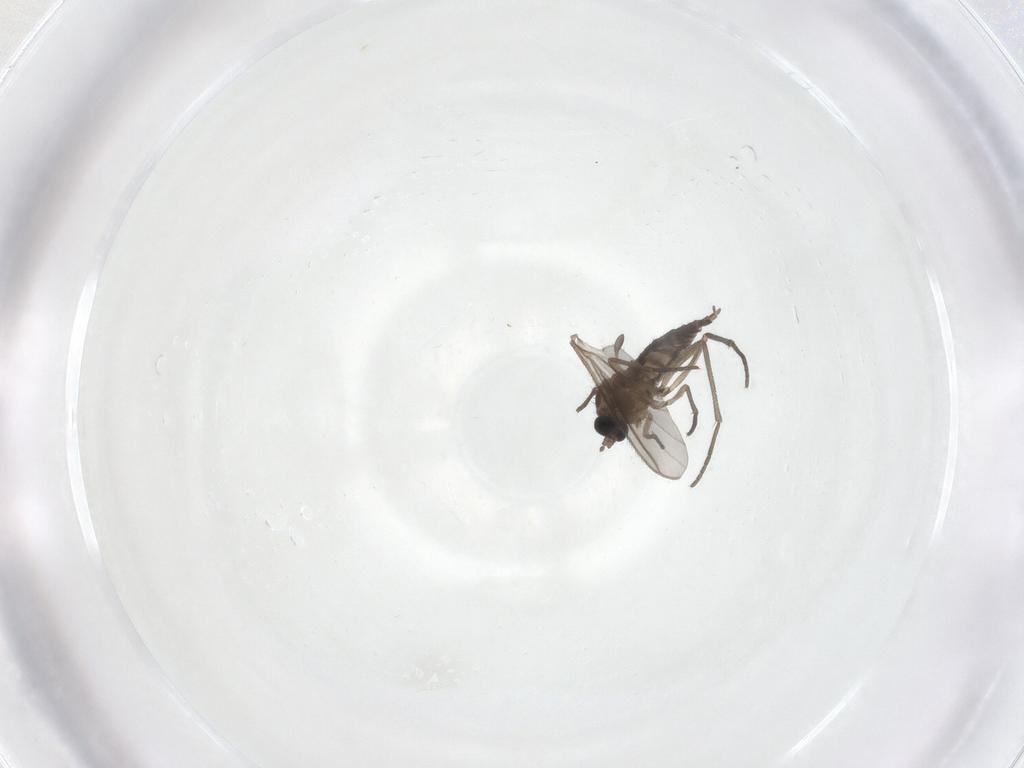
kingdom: Animalia
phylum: Arthropoda
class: Insecta
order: Diptera
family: Sciaridae
